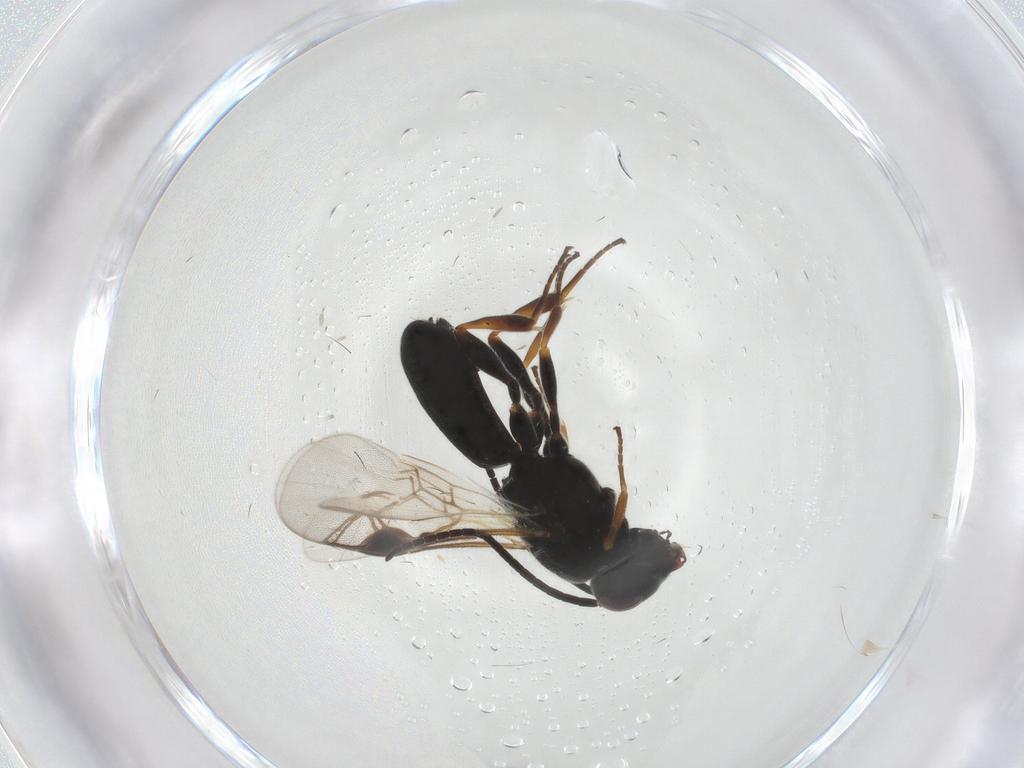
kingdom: Animalia
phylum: Arthropoda
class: Insecta
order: Hymenoptera
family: Braconidae
